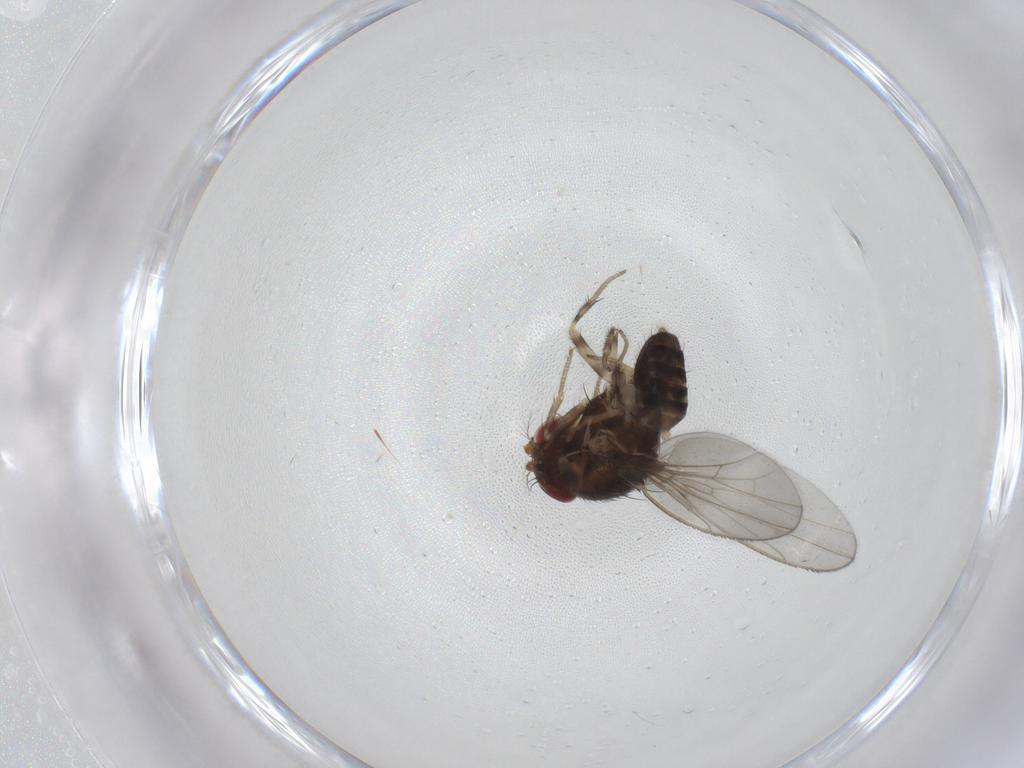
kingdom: Animalia
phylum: Arthropoda
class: Insecta
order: Diptera
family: Drosophilidae
